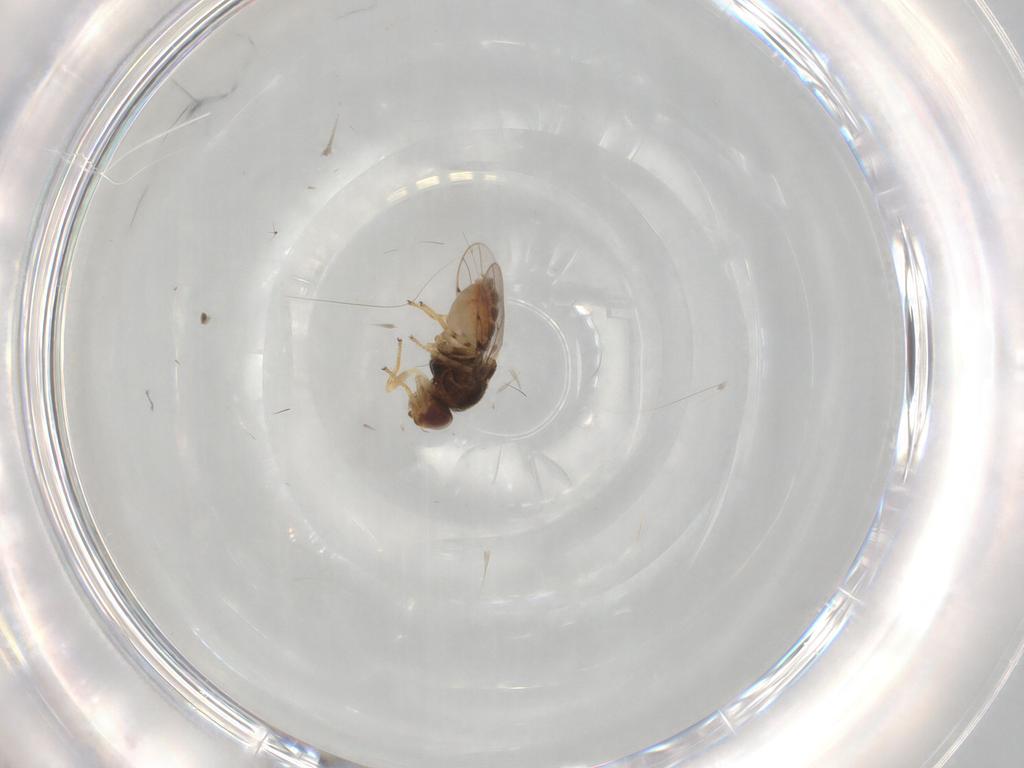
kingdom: Animalia
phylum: Arthropoda
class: Insecta
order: Diptera
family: Chloropidae
